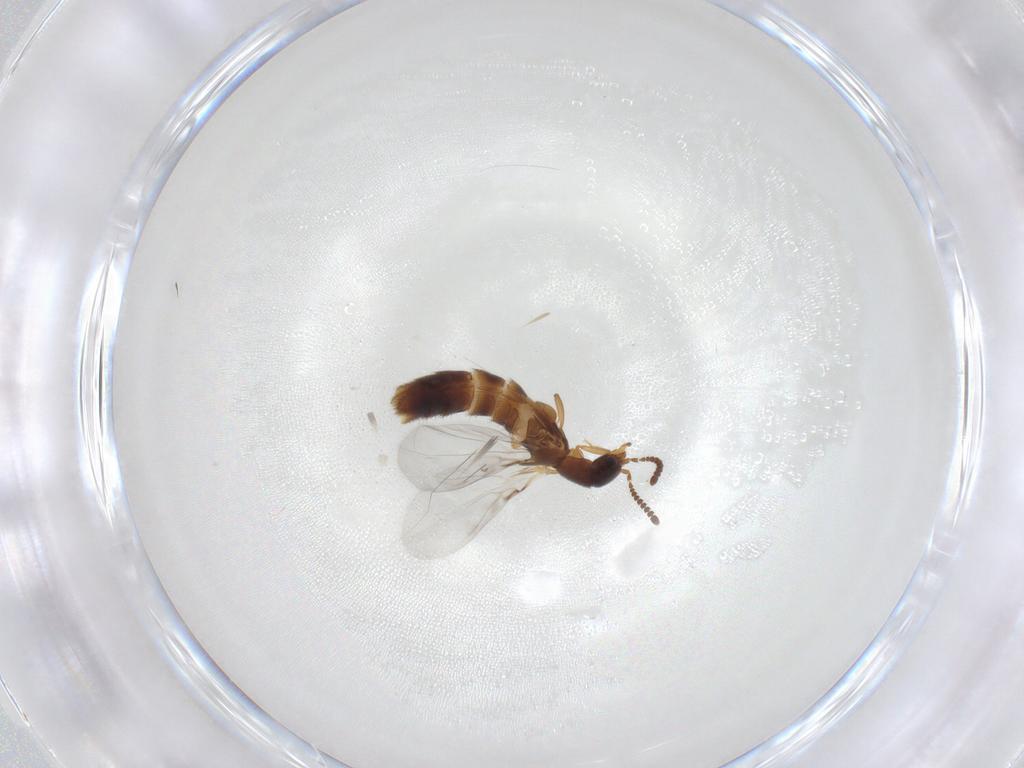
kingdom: Animalia
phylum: Arthropoda
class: Insecta
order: Coleoptera
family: Staphylinidae
